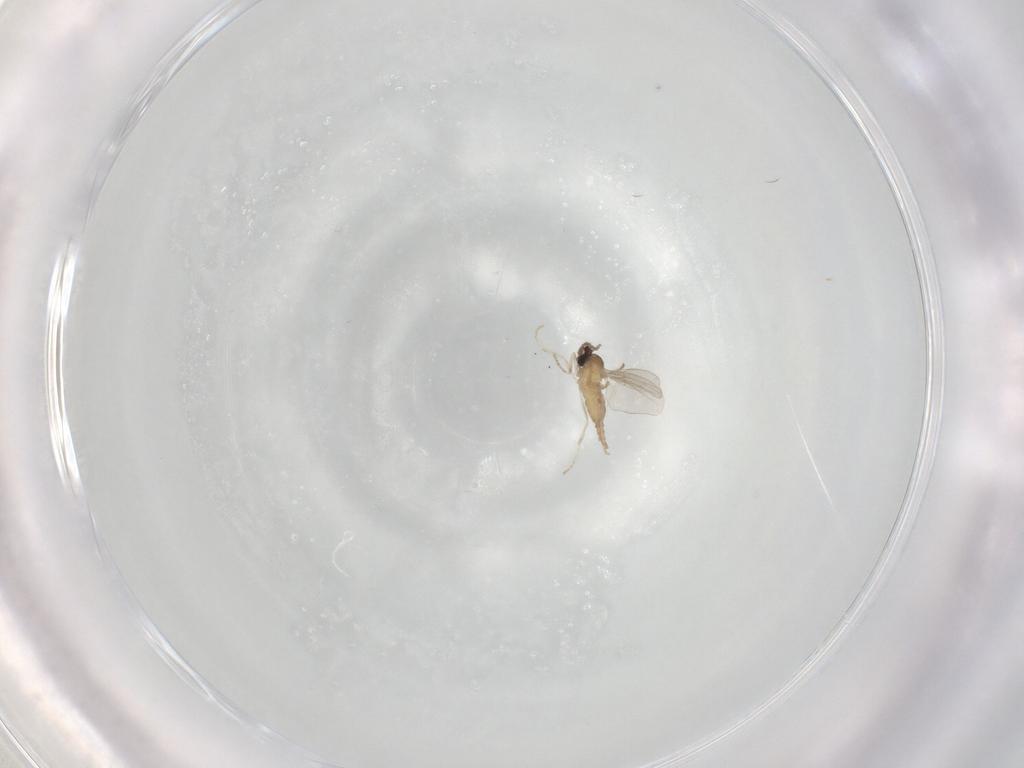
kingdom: Animalia
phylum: Arthropoda
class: Insecta
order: Diptera
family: Cecidomyiidae
